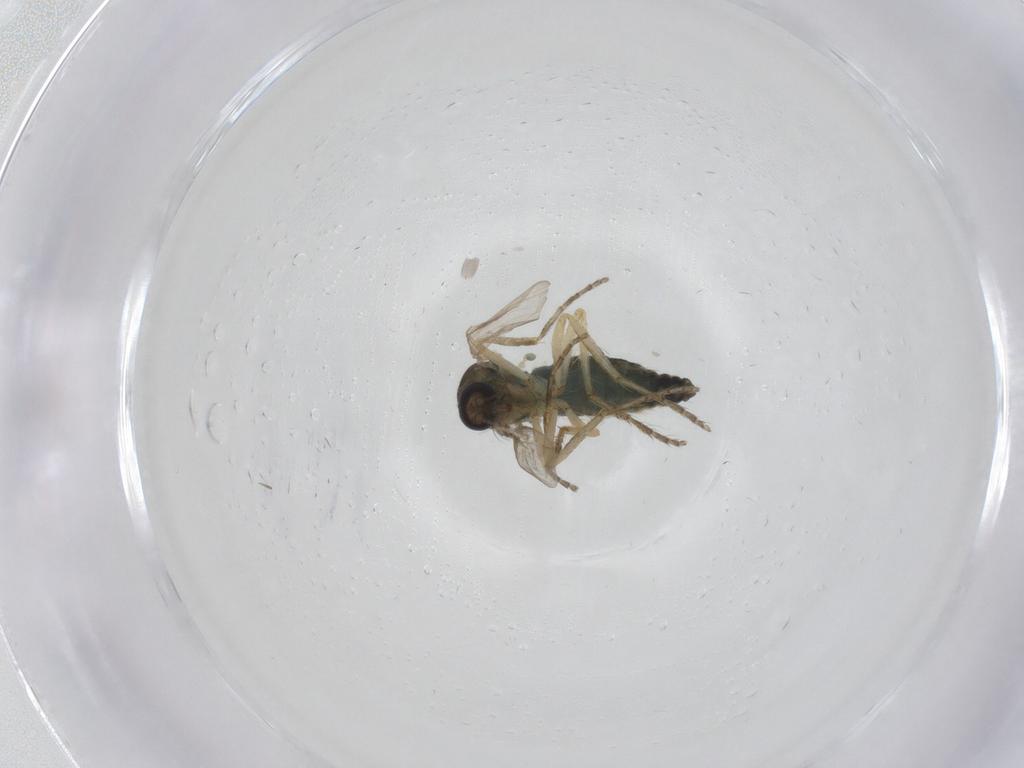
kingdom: Animalia
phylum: Arthropoda
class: Insecta
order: Diptera
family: Ceratopogonidae
